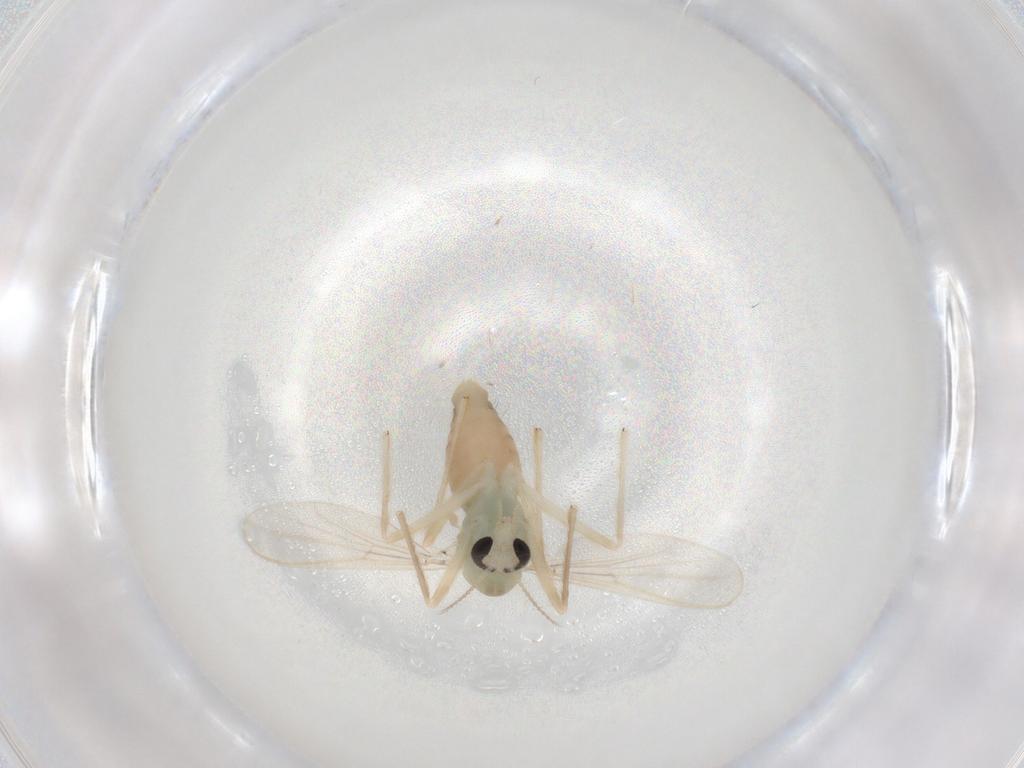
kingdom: Animalia
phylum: Arthropoda
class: Insecta
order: Diptera
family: Chironomidae
